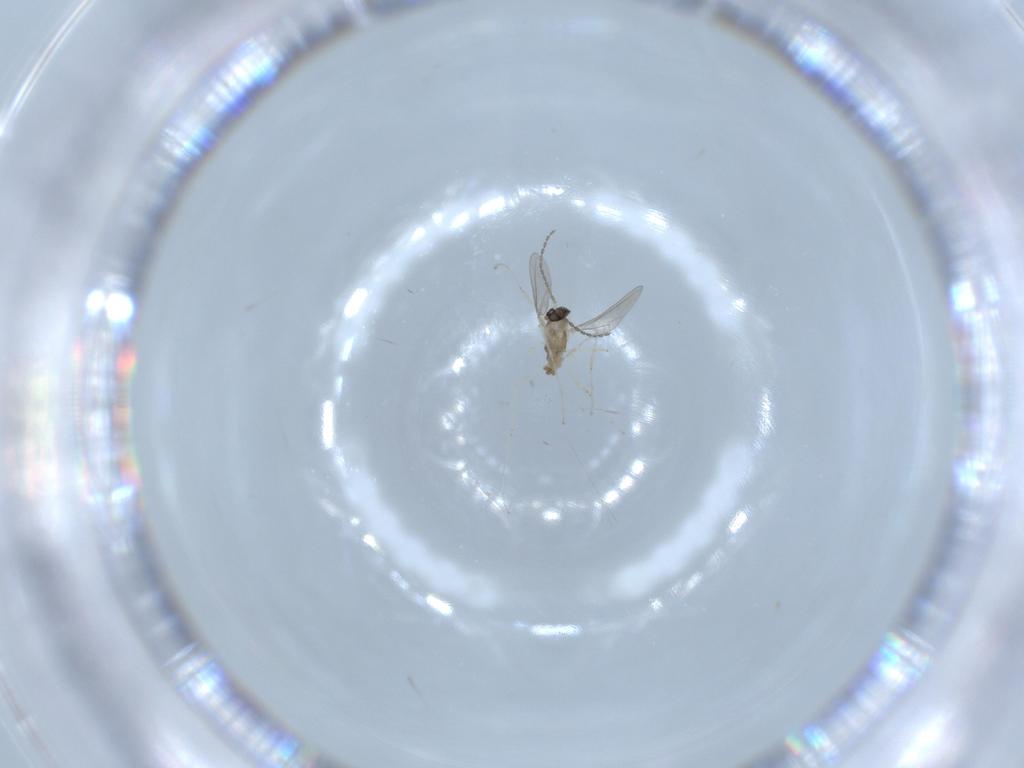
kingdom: Animalia
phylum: Arthropoda
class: Insecta
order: Diptera
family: Cecidomyiidae
